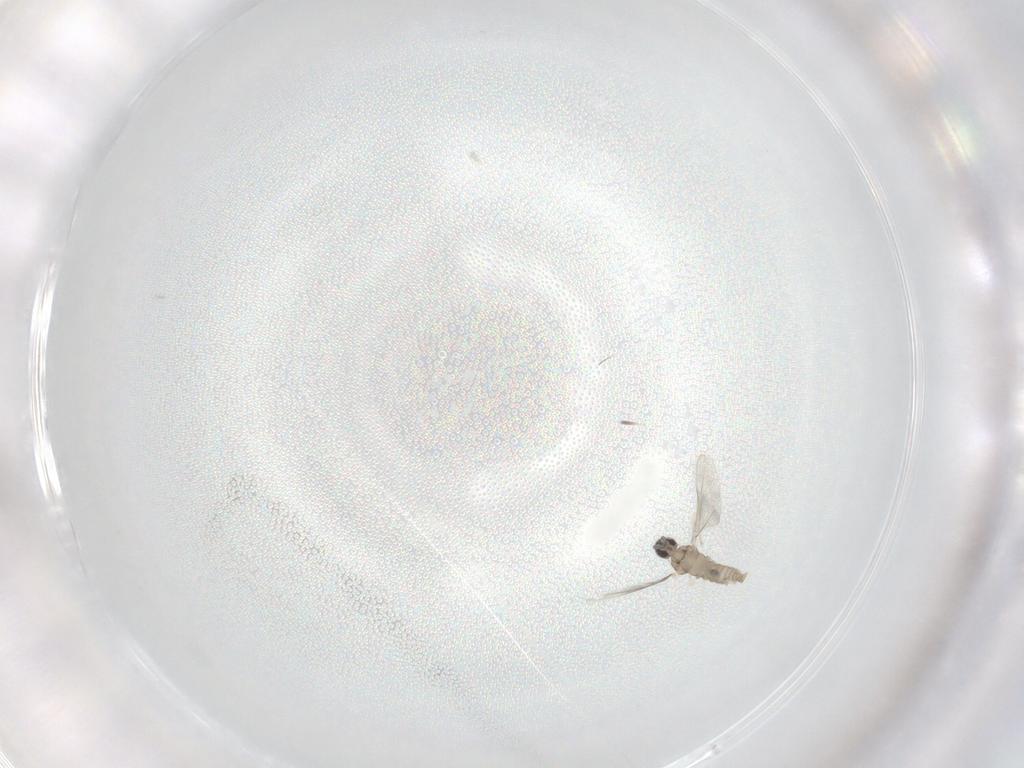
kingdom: Animalia
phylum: Arthropoda
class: Insecta
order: Diptera
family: Cecidomyiidae
